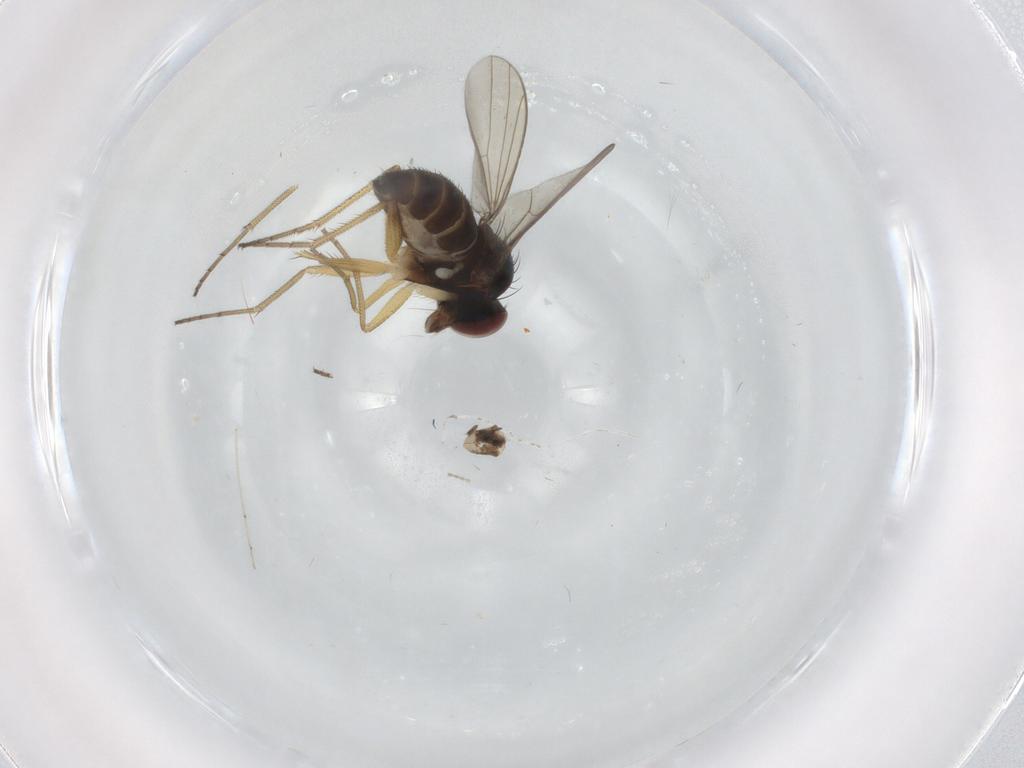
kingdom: Animalia
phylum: Arthropoda
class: Insecta
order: Diptera
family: Dolichopodidae
